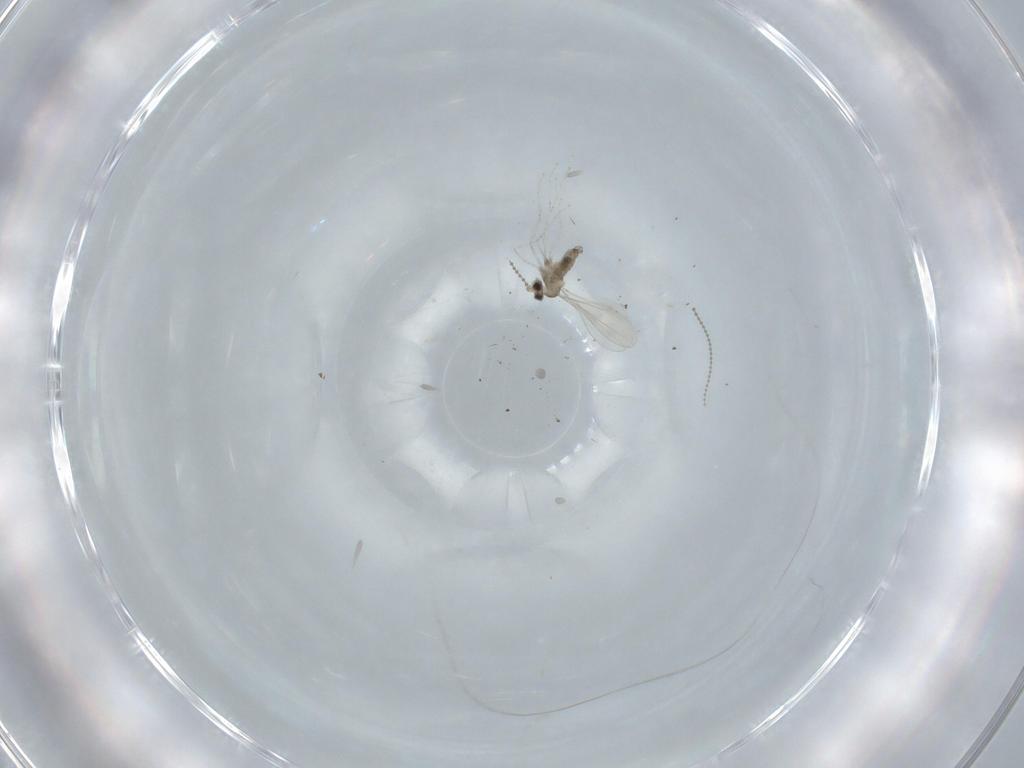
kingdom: Animalia
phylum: Arthropoda
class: Insecta
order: Diptera
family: Cecidomyiidae
